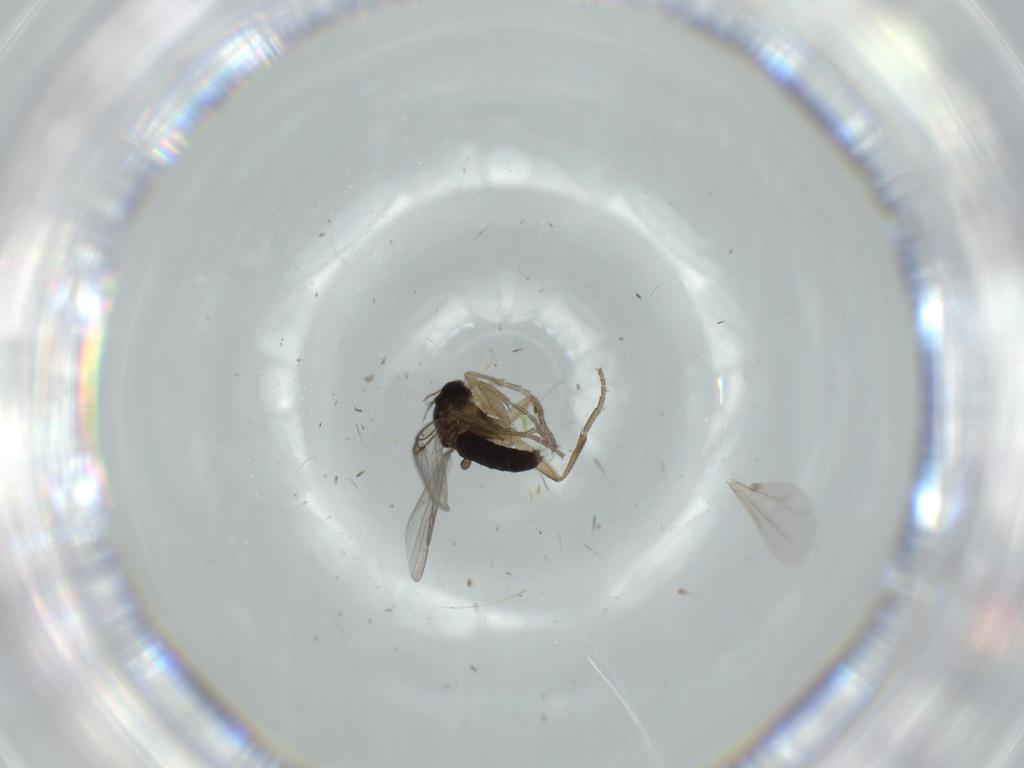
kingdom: Animalia
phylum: Arthropoda
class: Insecta
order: Diptera
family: Phoridae
